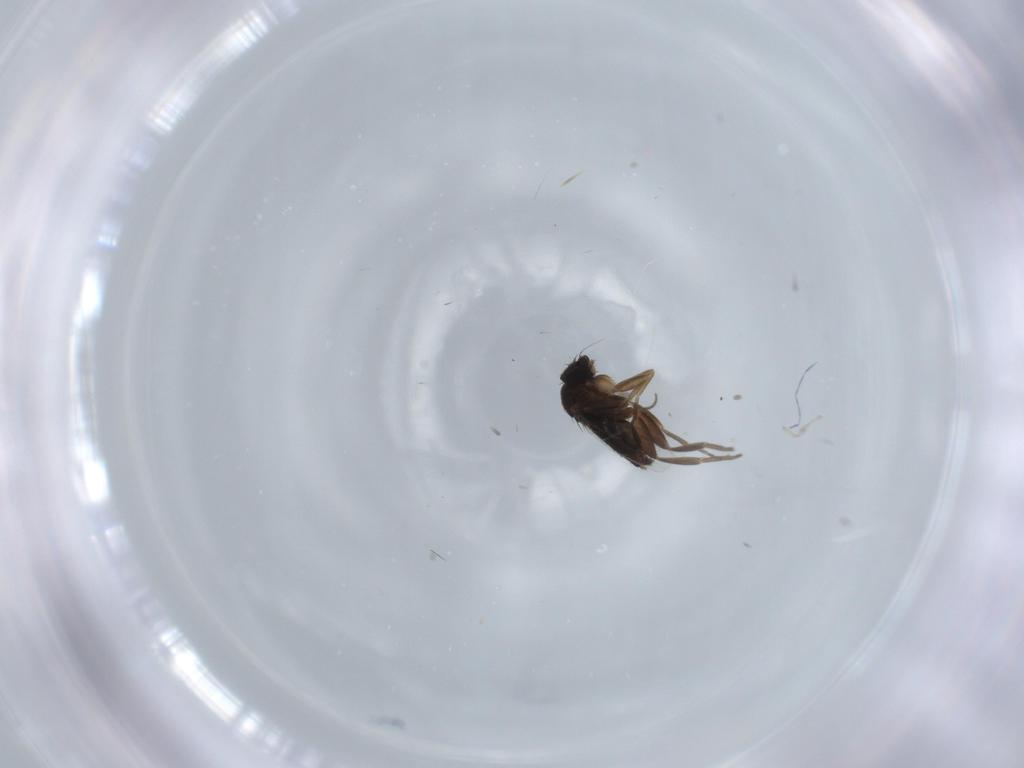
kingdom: Animalia
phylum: Arthropoda
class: Insecta
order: Diptera
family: Phoridae
